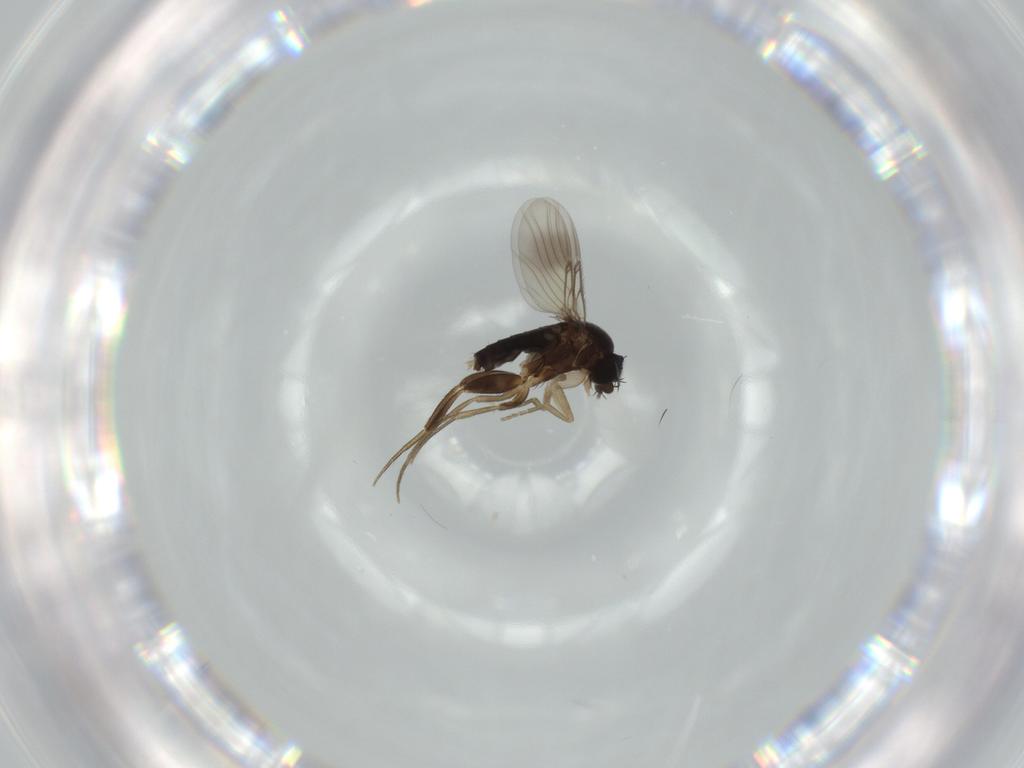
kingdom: Animalia
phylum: Arthropoda
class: Insecta
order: Diptera
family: Phoridae
